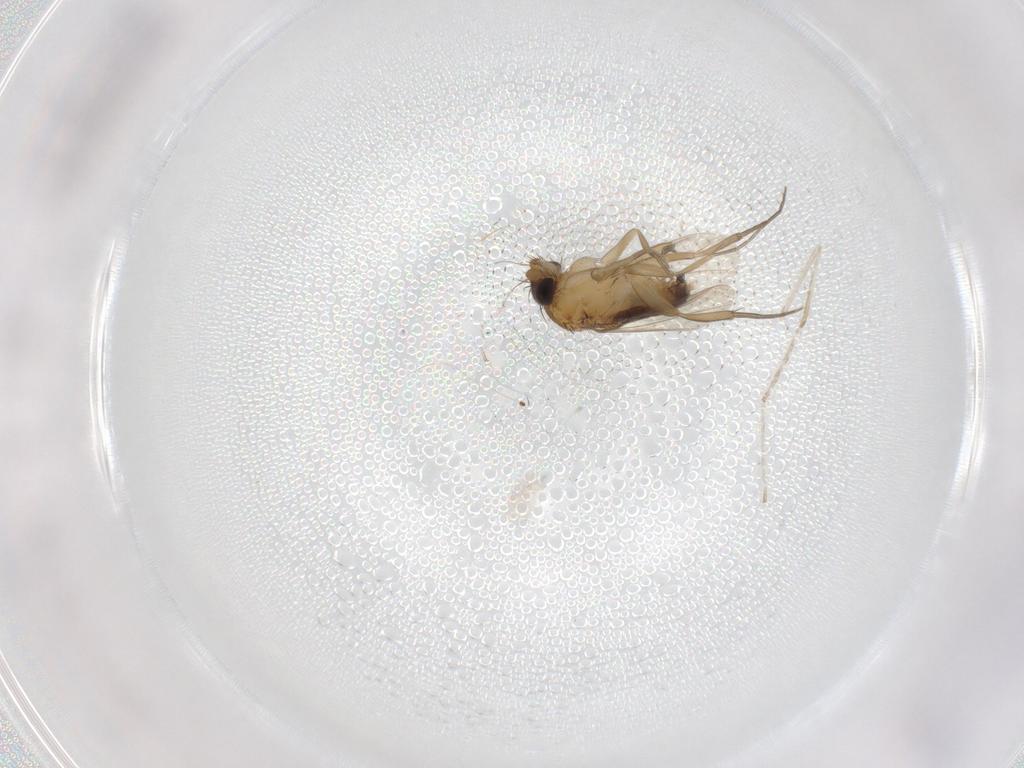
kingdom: Animalia
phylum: Arthropoda
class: Insecta
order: Diptera
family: Phoridae
